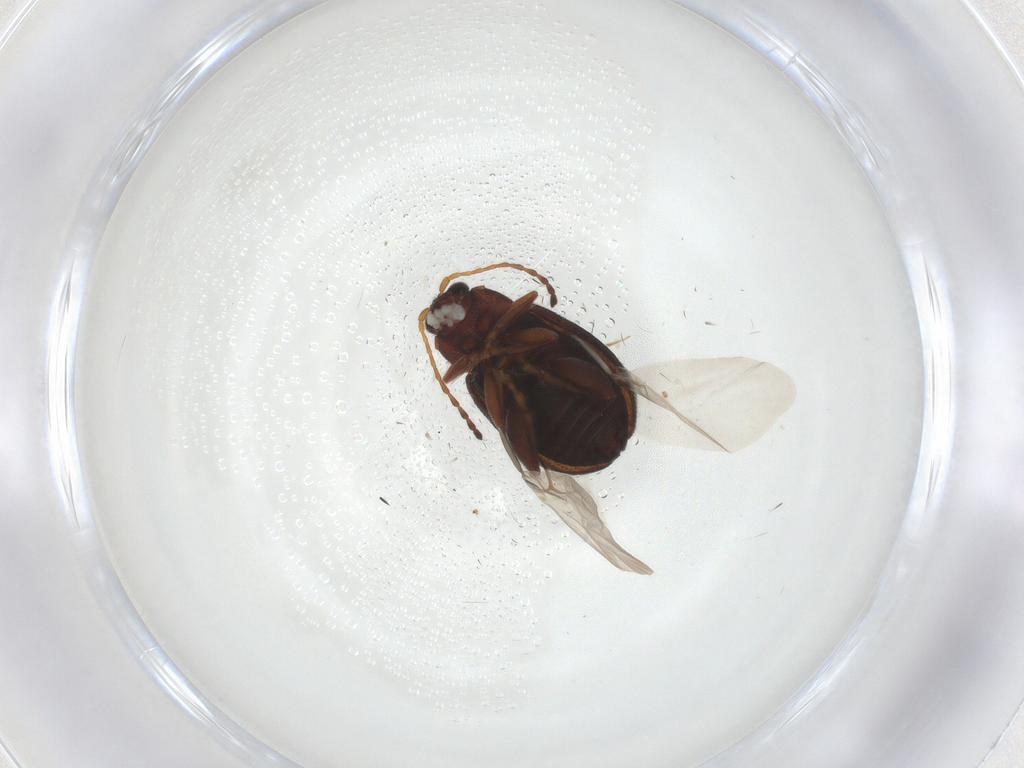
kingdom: Animalia
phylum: Arthropoda
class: Insecta
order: Coleoptera
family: Chrysomelidae
